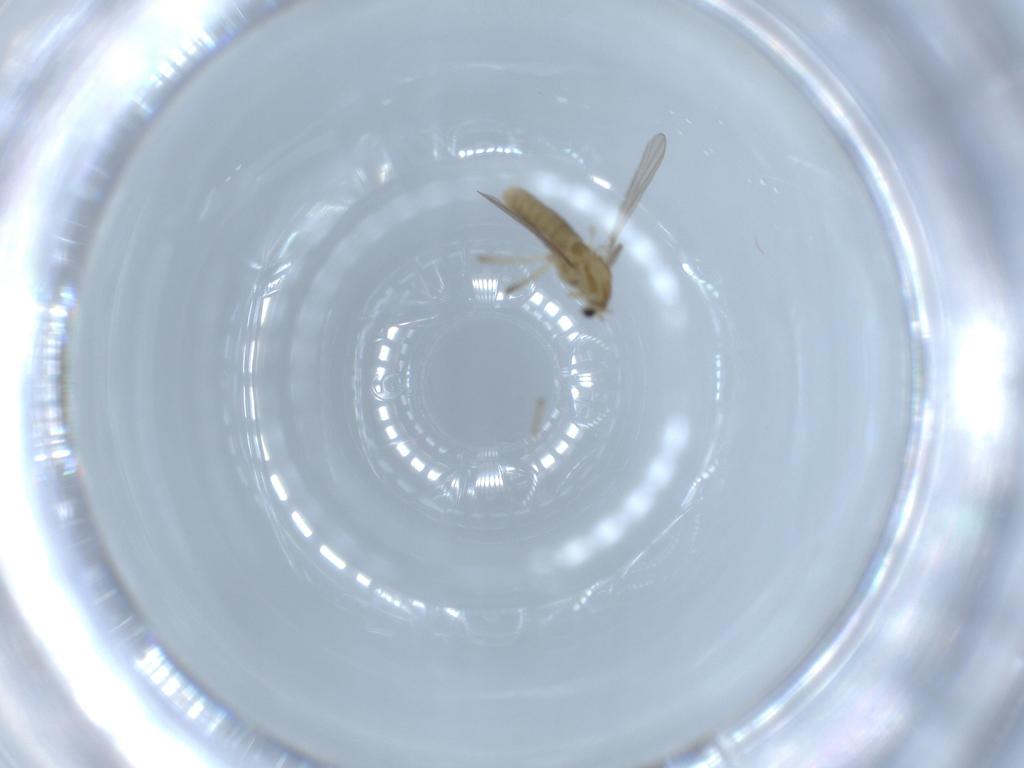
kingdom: Animalia
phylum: Arthropoda
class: Insecta
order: Diptera
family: Chironomidae
